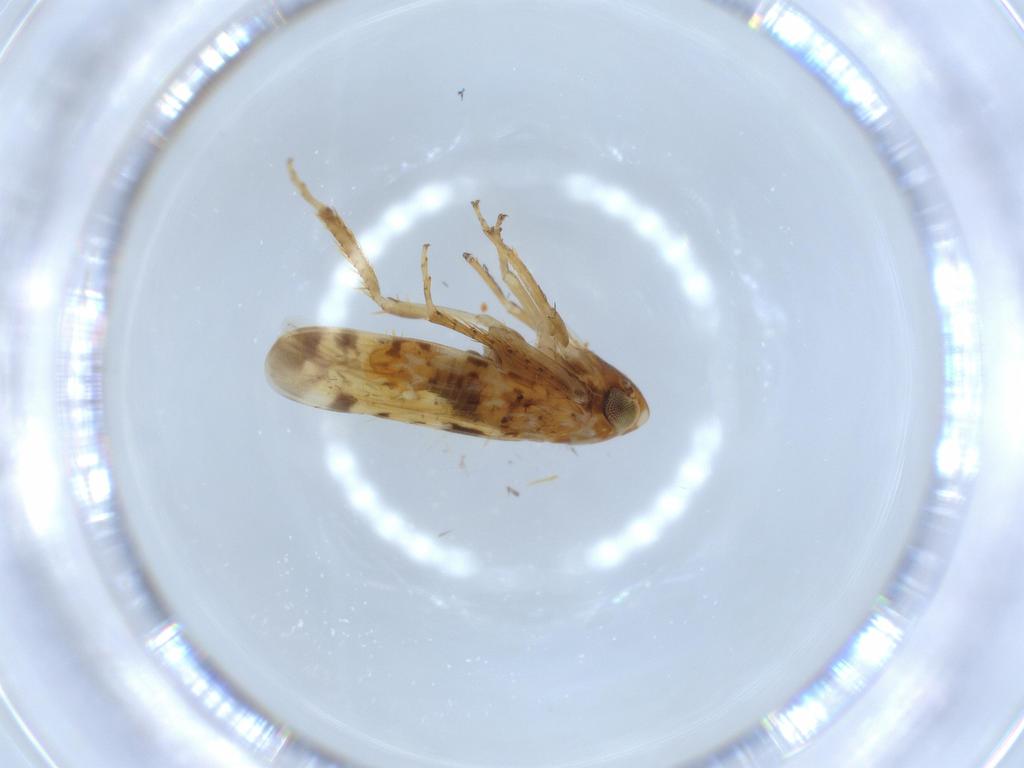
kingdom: Animalia
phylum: Arthropoda
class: Insecta
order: Hemiptera
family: Cicadellidae
